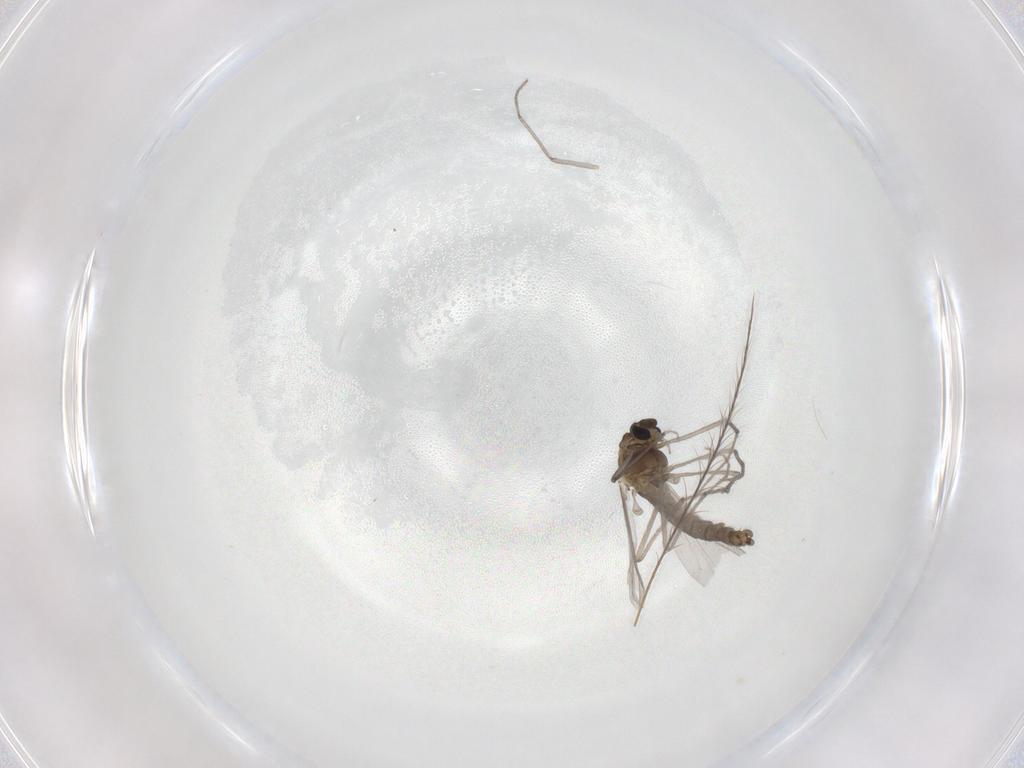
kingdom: Animalia
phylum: Arthropoda
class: Insecta
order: Diptera
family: Chironomidae
